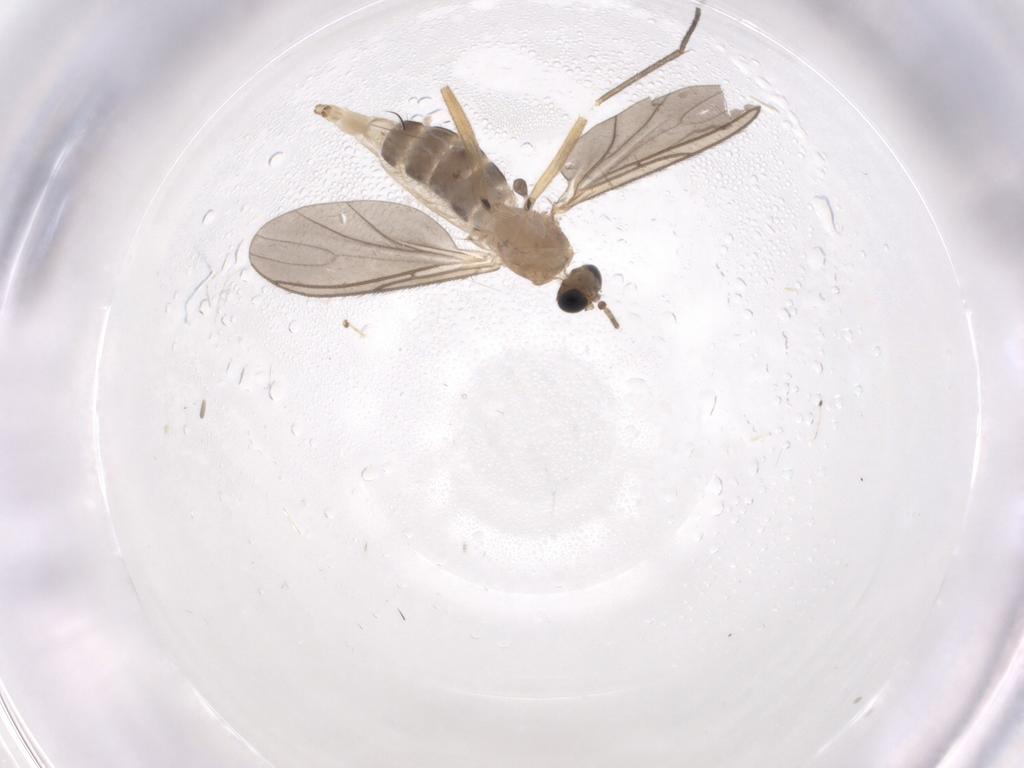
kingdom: Animalia
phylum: Arthropoda
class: Insecta
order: Diptera
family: Sciaridae
